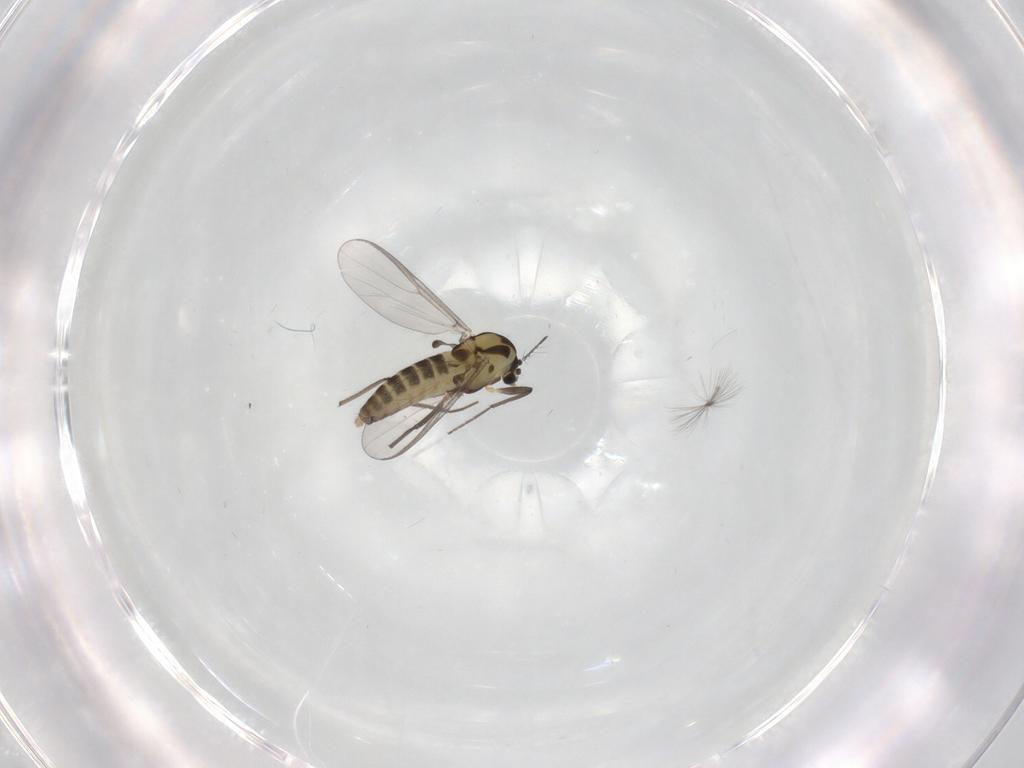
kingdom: Animalia
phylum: Arthropoda
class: Insecta
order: Diptera
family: Chironomidae
